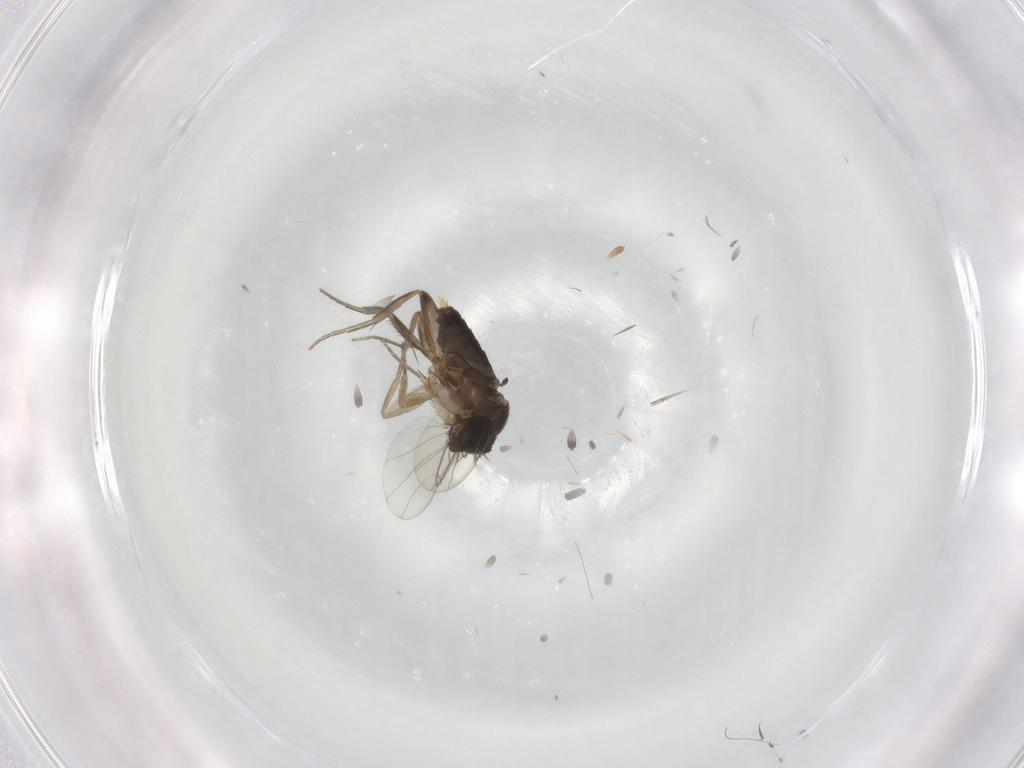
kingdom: Animalia
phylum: Arthropoda
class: Insecta
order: Diptera
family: Phoridae
